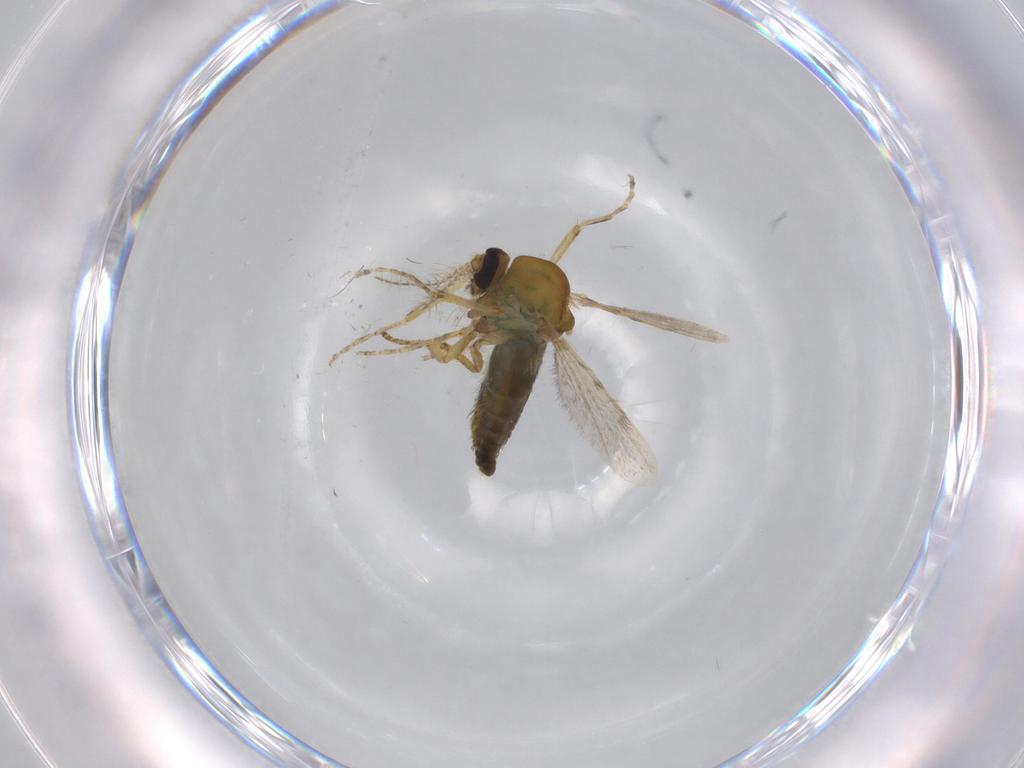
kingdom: Animalia
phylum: Arthropoda
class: Insecta
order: Diptera
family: Ceratopogonidae
